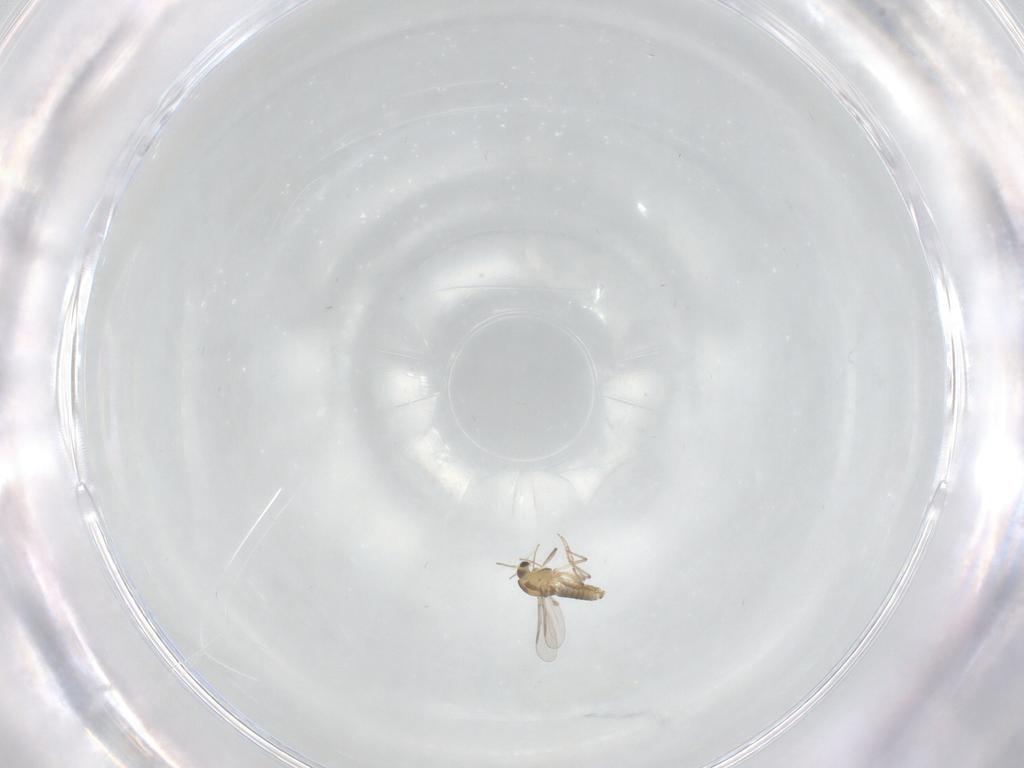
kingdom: Animalia
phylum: Arthropoda
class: Insecta
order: Diptera
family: Chironomidae
